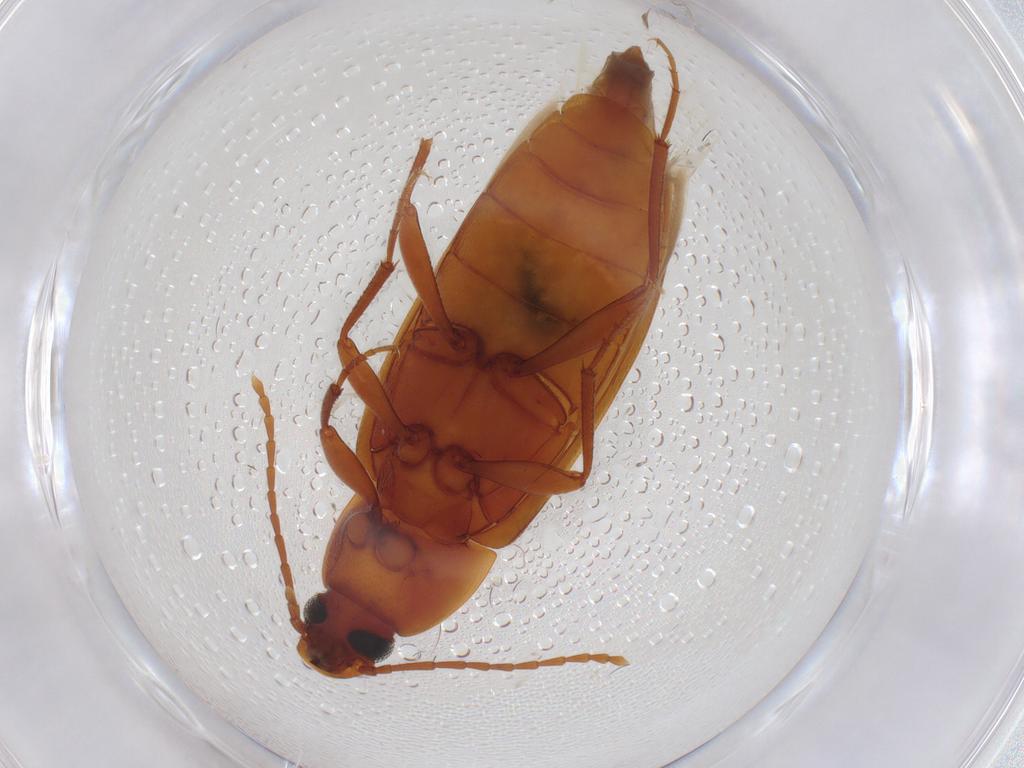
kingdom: Animalia
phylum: Arthropoda
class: Insecta
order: Coleoptera
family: Tenebrionidae
